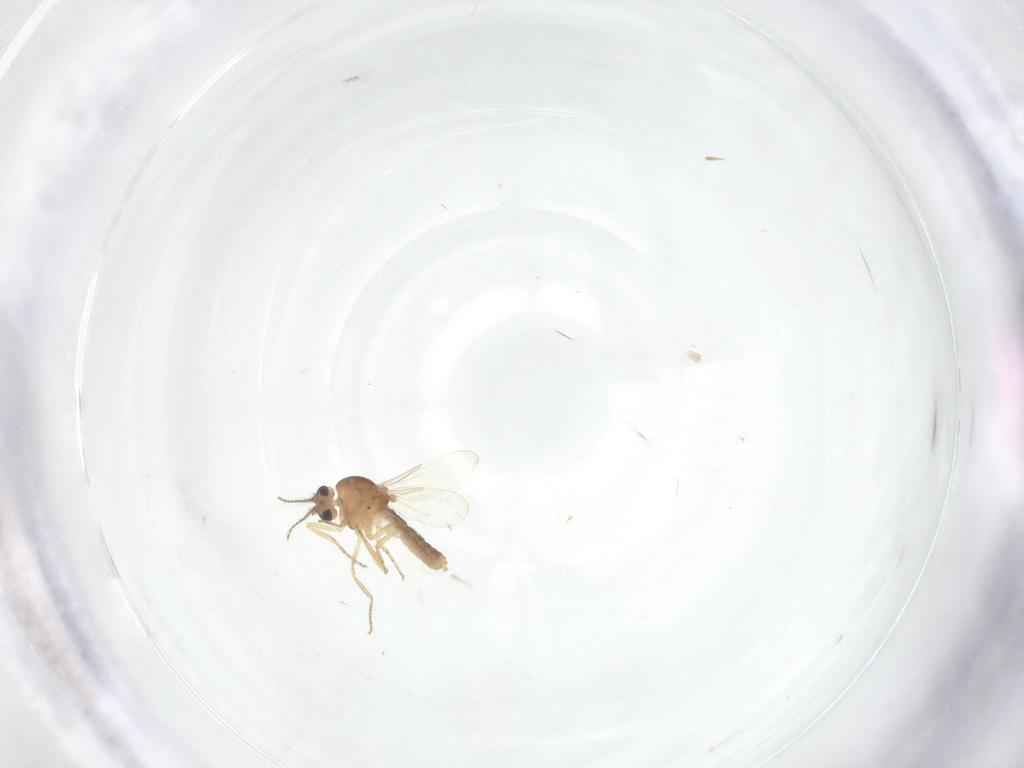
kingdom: Animalia
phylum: Arthropoda
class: Insecta
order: Diptera
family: Ceratopogonidae
